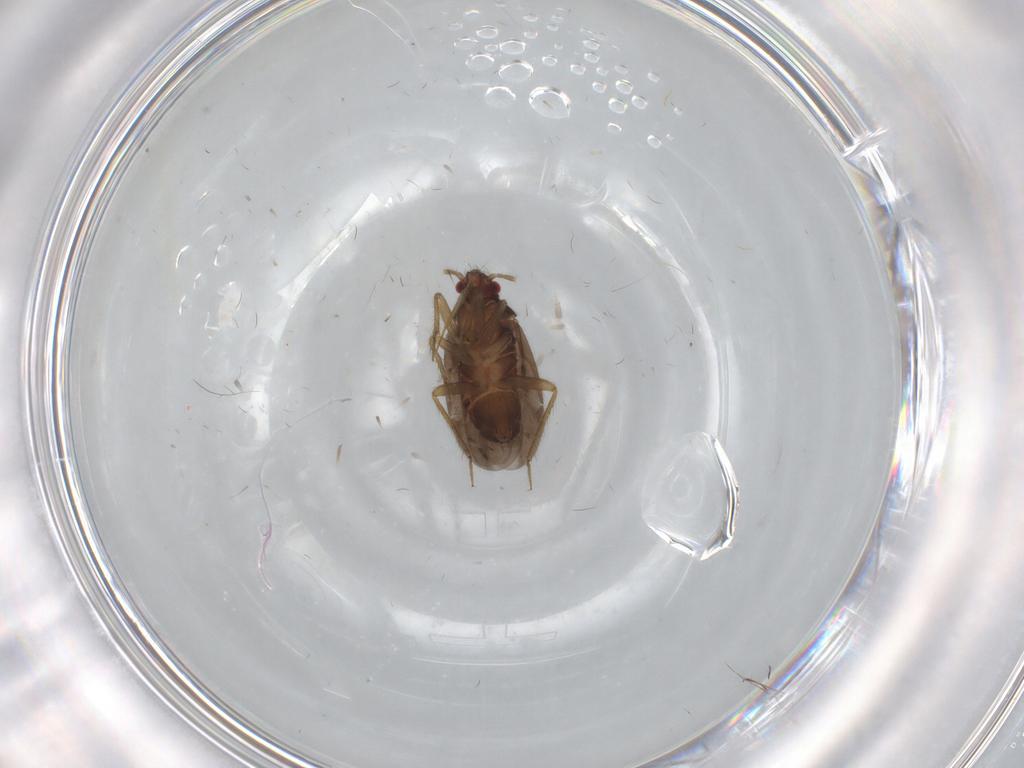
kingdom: Animalia
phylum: Arthropoda
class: Insecta
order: Hemiptera
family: Ceratocombidae
